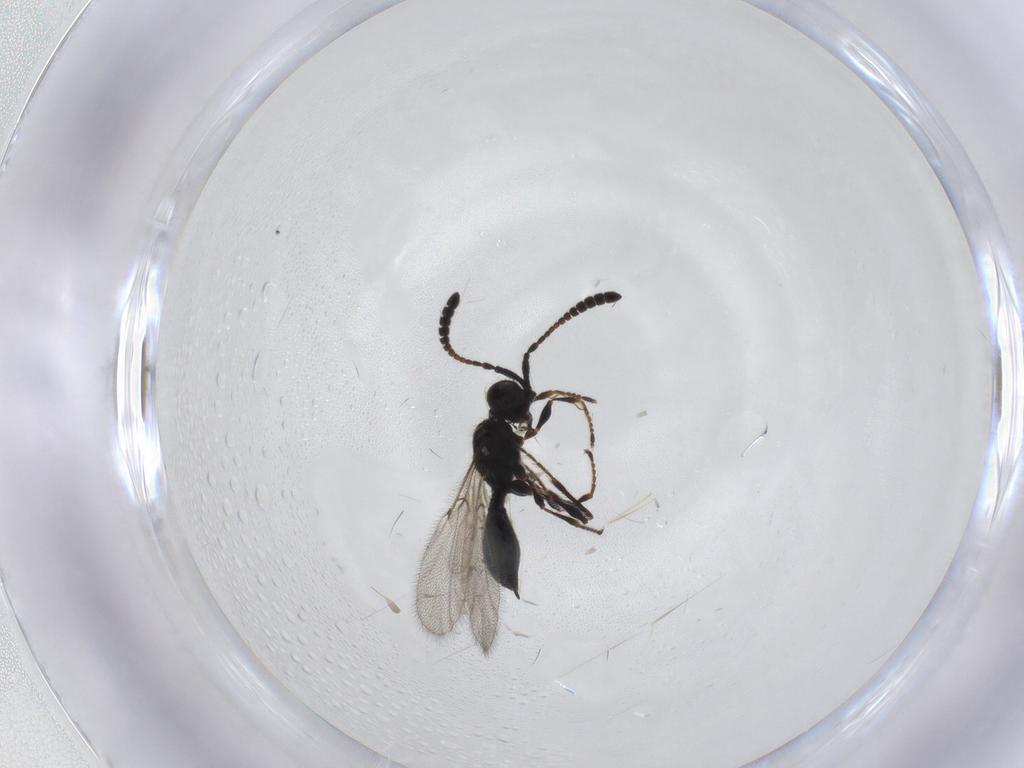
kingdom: Animalia
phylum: Arthropoda
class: Insecta
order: Hymenoptera
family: Diapriidae
